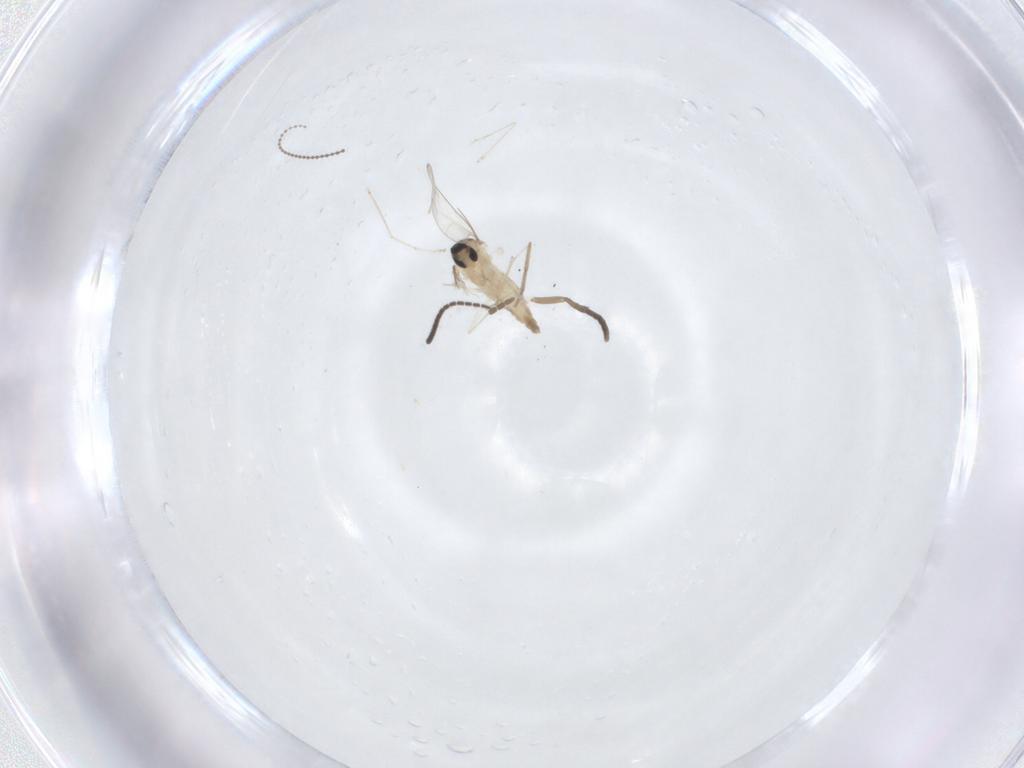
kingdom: Animalia
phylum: Arthropoda
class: Insecta
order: Diptera
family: Sciaridae
